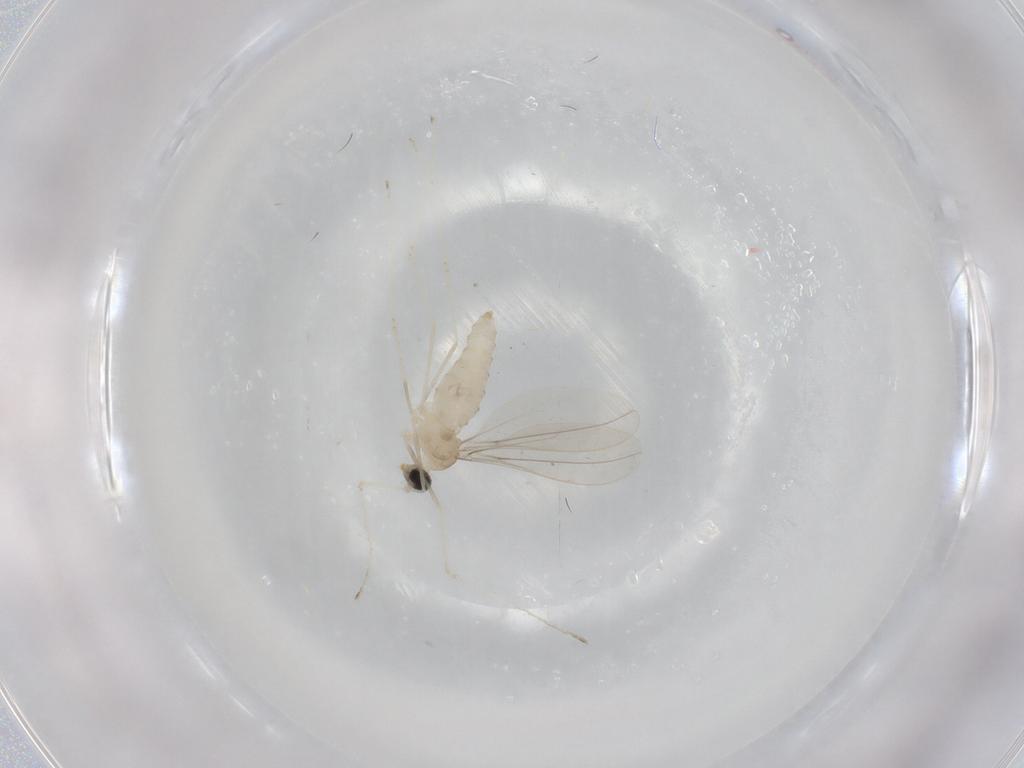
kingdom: Animalia
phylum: Arthropoda
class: Insecta
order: Diptera
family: Cecidomyiidae
